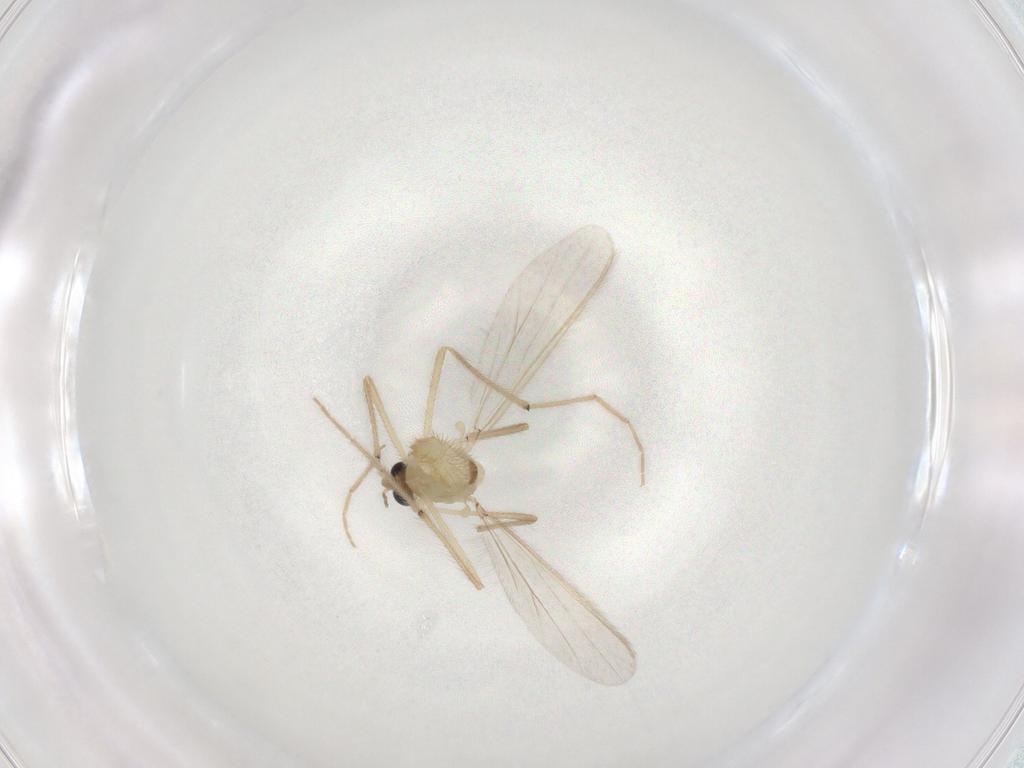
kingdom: Animalia
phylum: Arthropoda
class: Insecta
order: Diptera
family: Chironomidae
